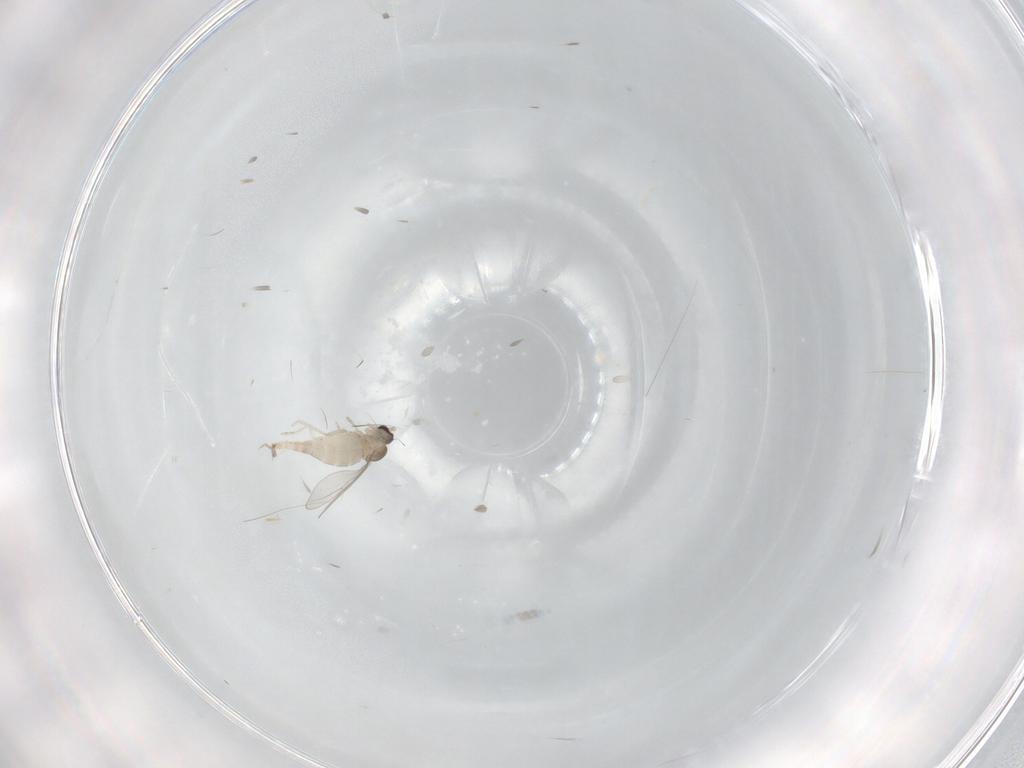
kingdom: Animalia
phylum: Arthropoda
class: Insecta
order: Diptera
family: Cecidomyiidae
